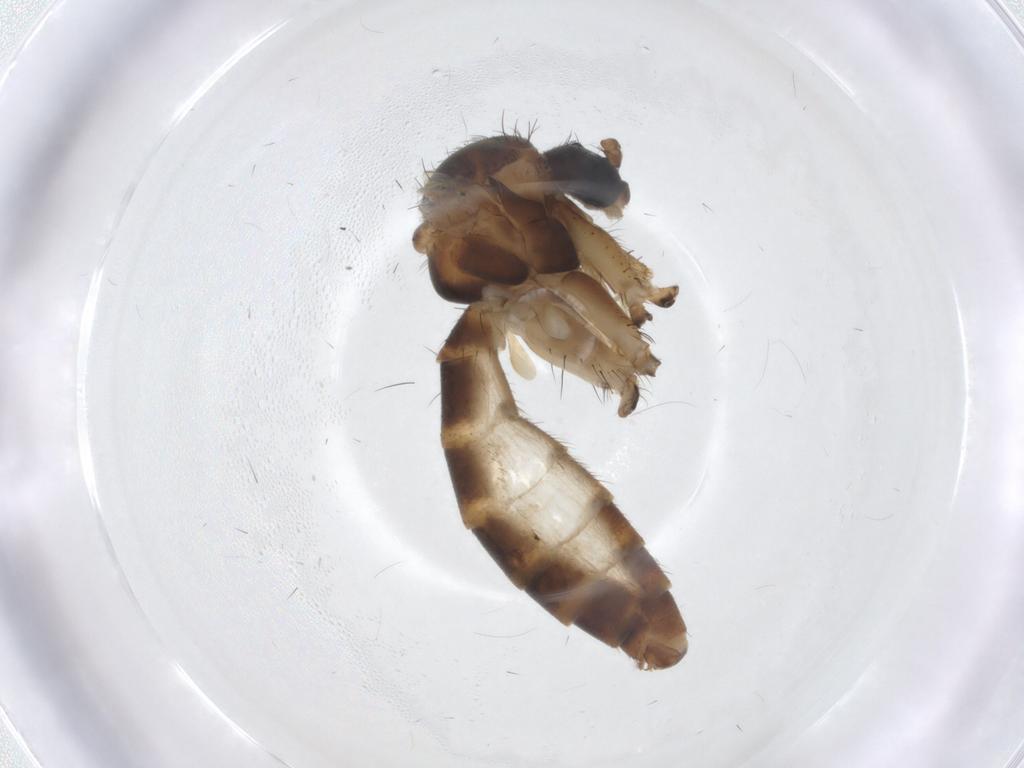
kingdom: Animalia
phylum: Arthropoda
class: Insecta
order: Diptera
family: Mycetophilidae
